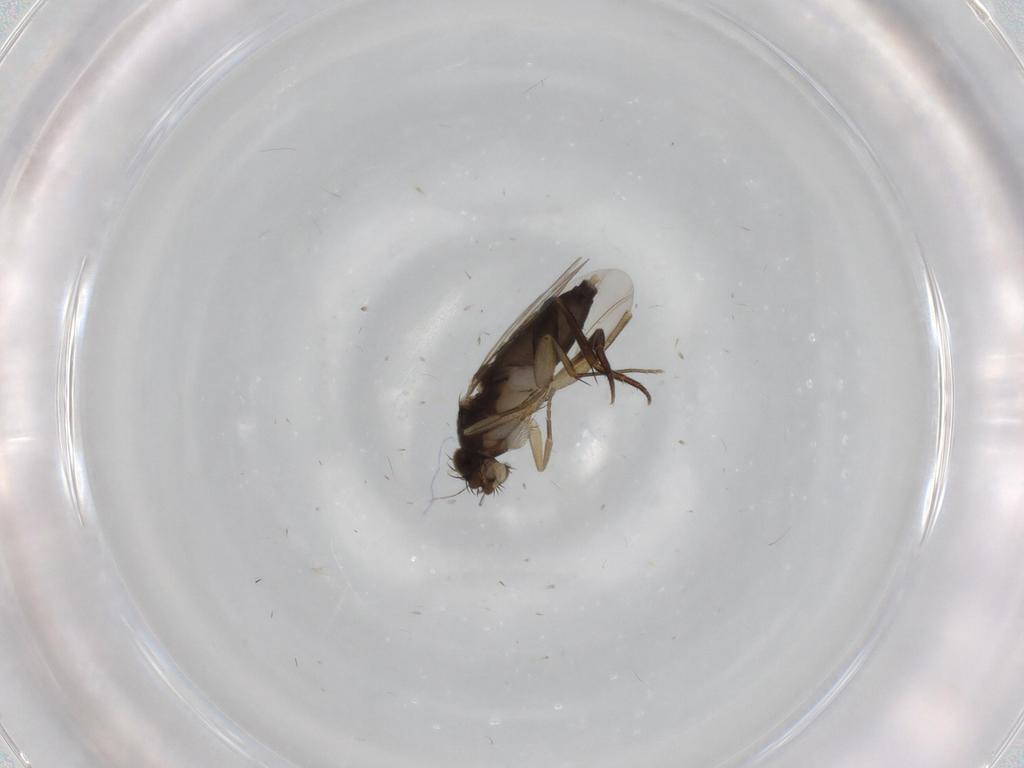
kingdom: Animalia
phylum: Arthropoda
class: Insecta
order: Diptera
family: Phoridae
